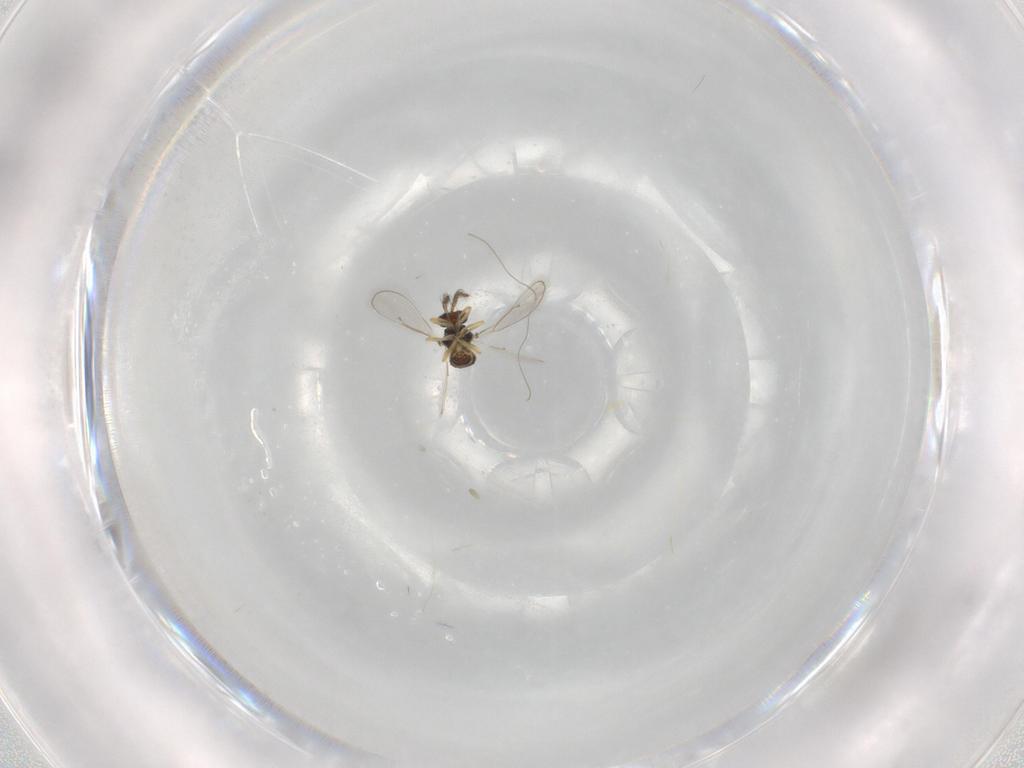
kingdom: Animalia
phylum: Arthropoda
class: Insecta
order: Hymenoptera
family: Eulophidae
